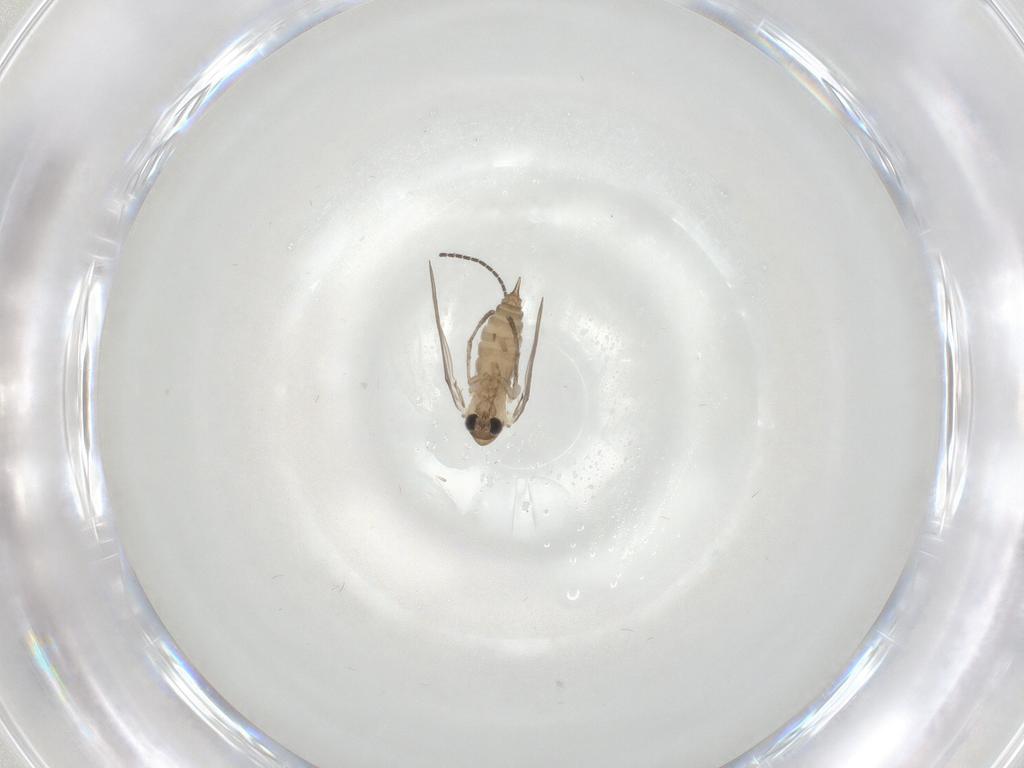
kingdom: Animalia
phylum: Arthropoda
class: Insecta
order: Diptera
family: Psychodidae
